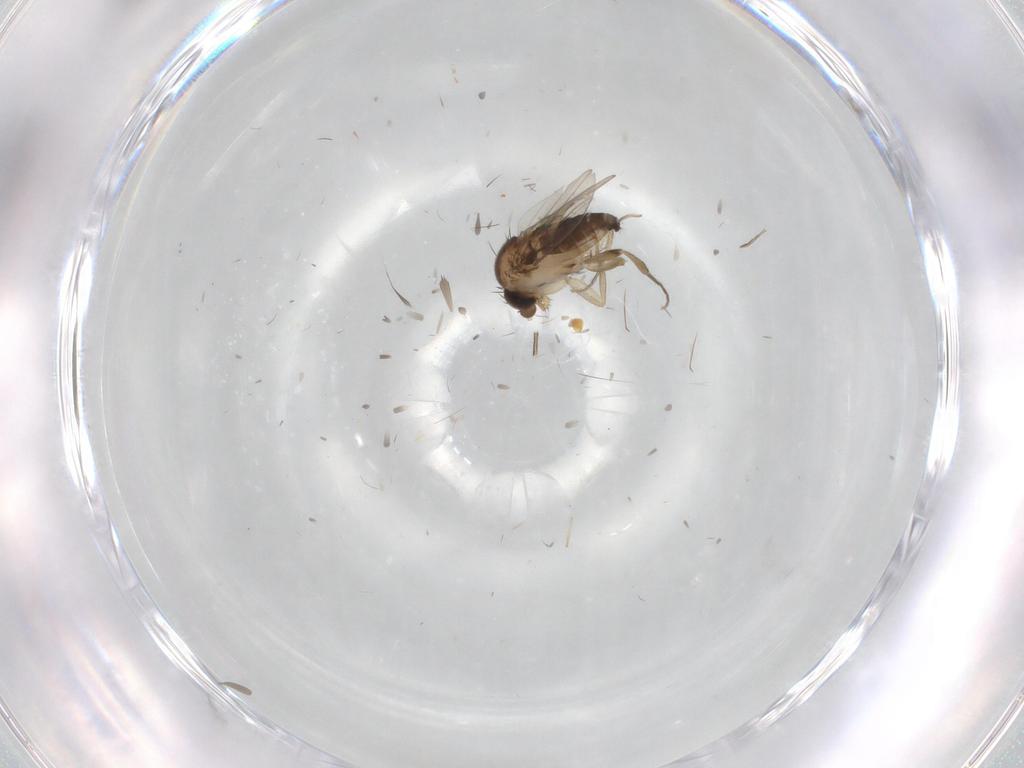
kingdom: Animalia
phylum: Arthropoda
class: Insecta
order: Diptera
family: Phoridae
